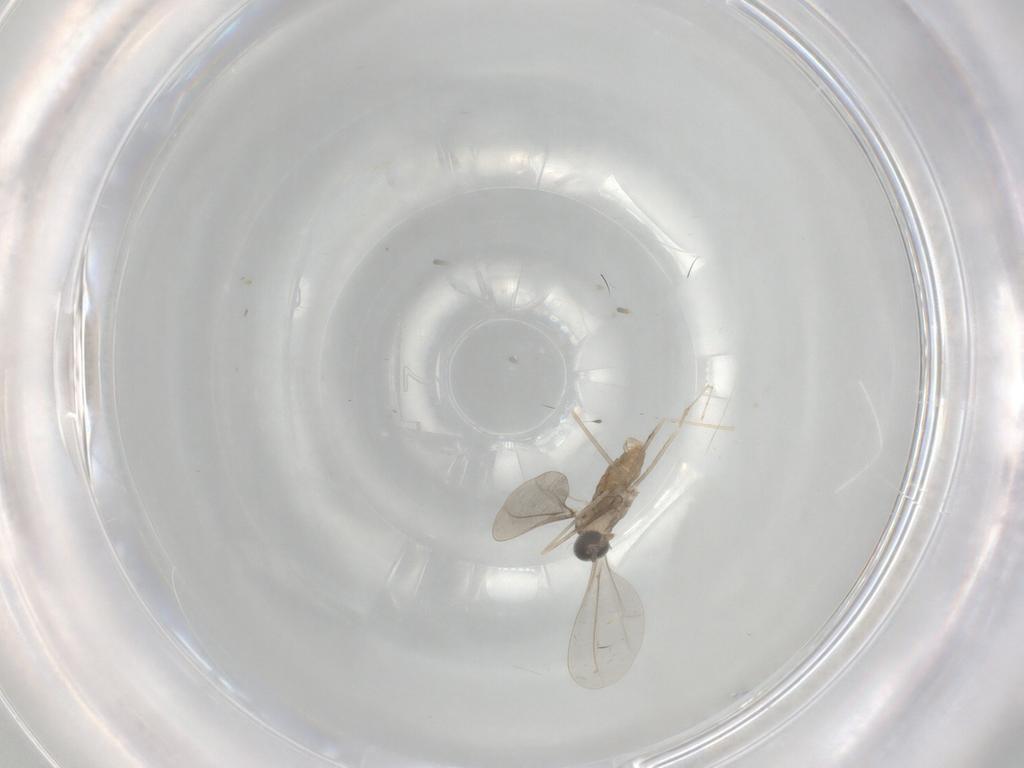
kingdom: Animalia
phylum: Arthropoda
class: Insecta
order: Diptera
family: Cecidomyiidae
